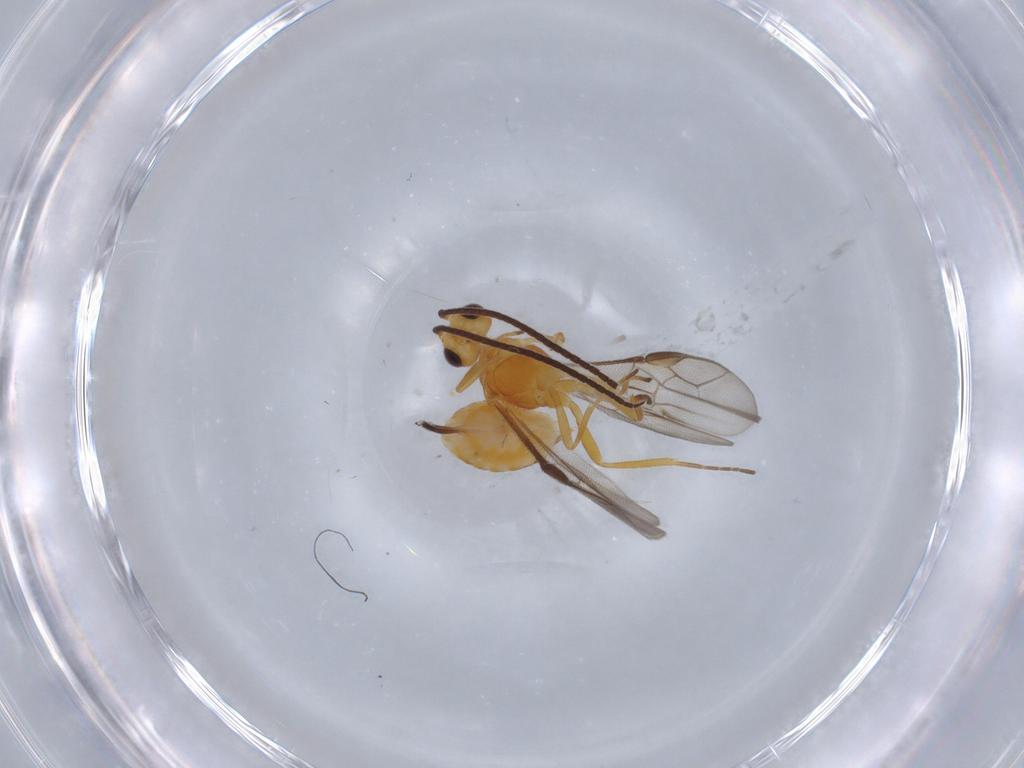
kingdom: Animalia
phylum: Arthropoda
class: Insecta
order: Hymenoptera
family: Braconidae
